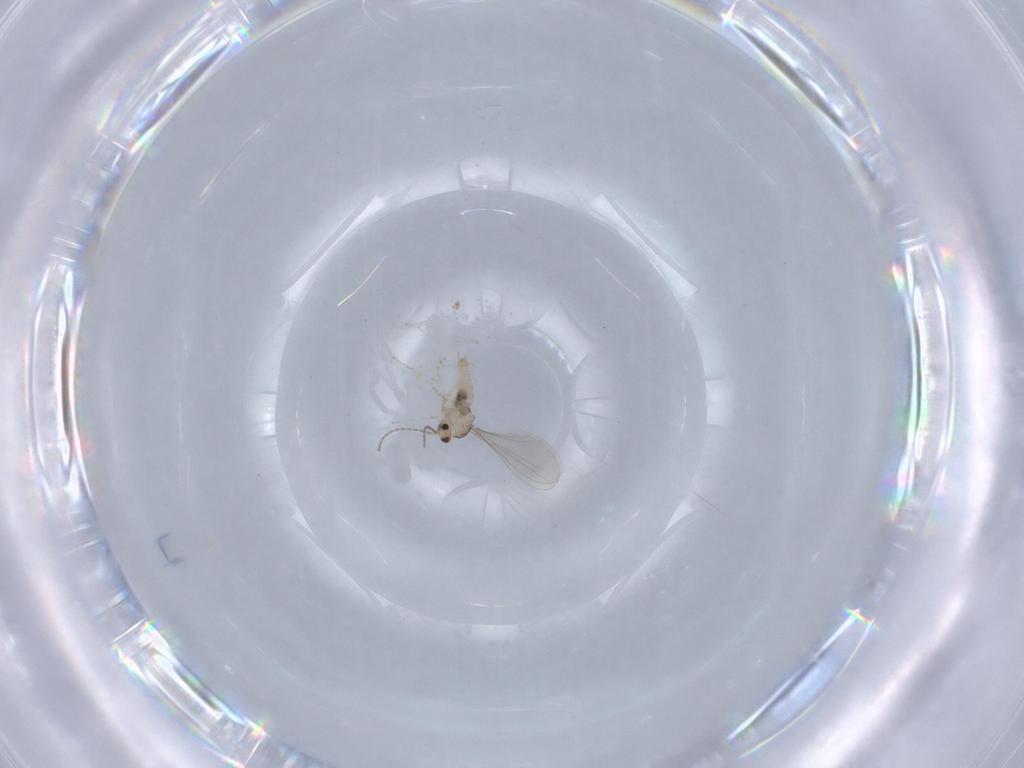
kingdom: Animalia
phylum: Arthropoda
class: Insecta
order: Diptera
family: Cecidomyiidae
